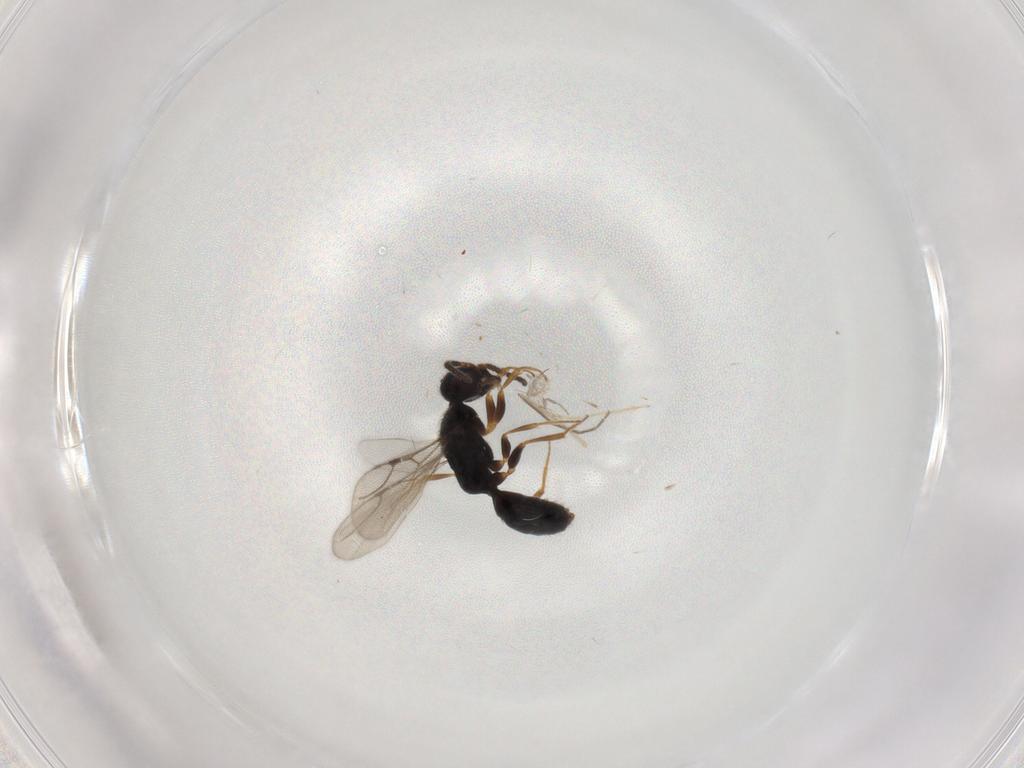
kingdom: Animalia
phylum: Arthropoda
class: Insecta
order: Hymenoptera
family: Bethylidae
